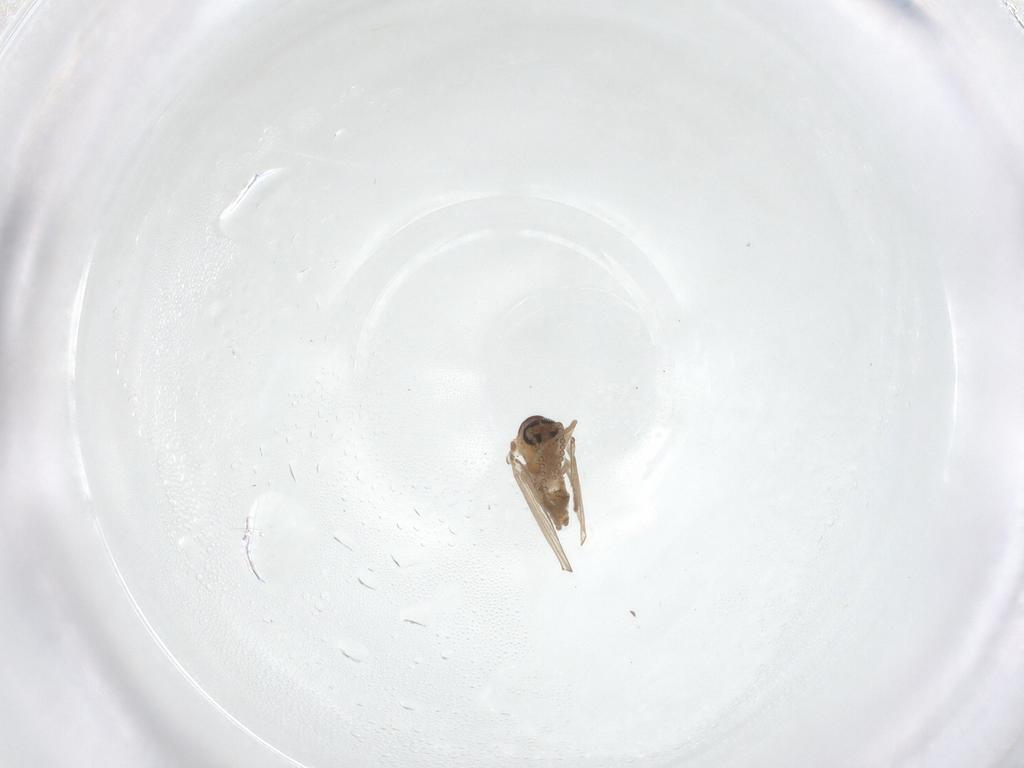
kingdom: Animalia
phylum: Arthropoda
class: Insecta
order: Diptera
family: Psychodidae
